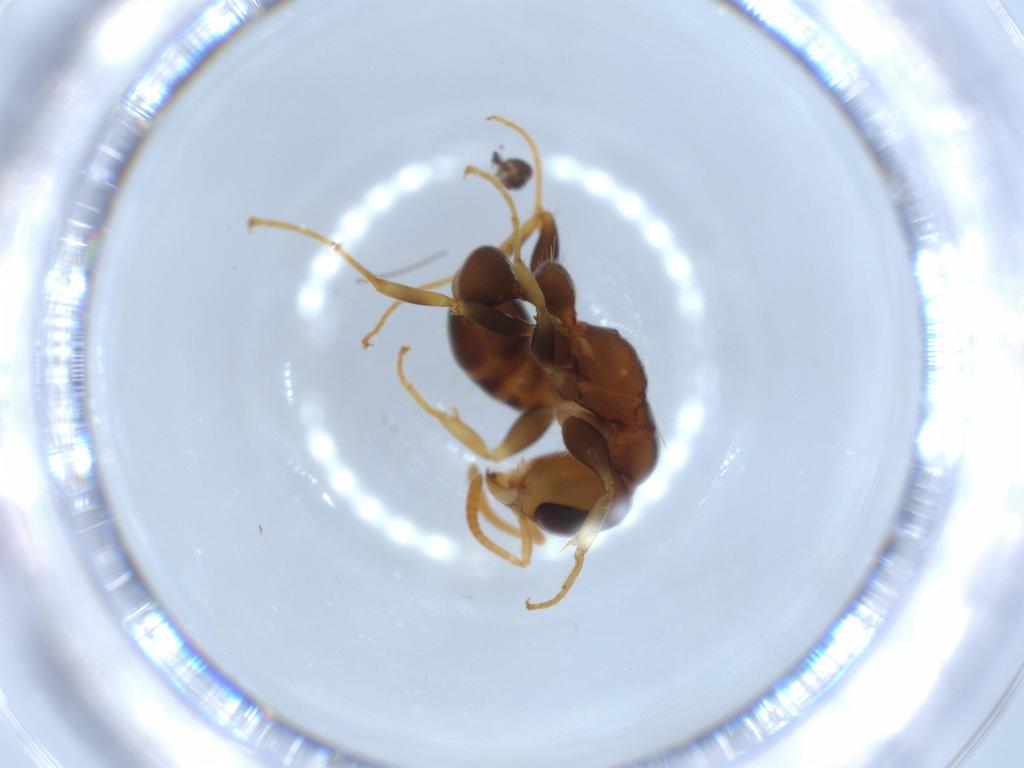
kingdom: Animalia
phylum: Arthropoda
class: Insecta
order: Hymenoptera
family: Formicidae
